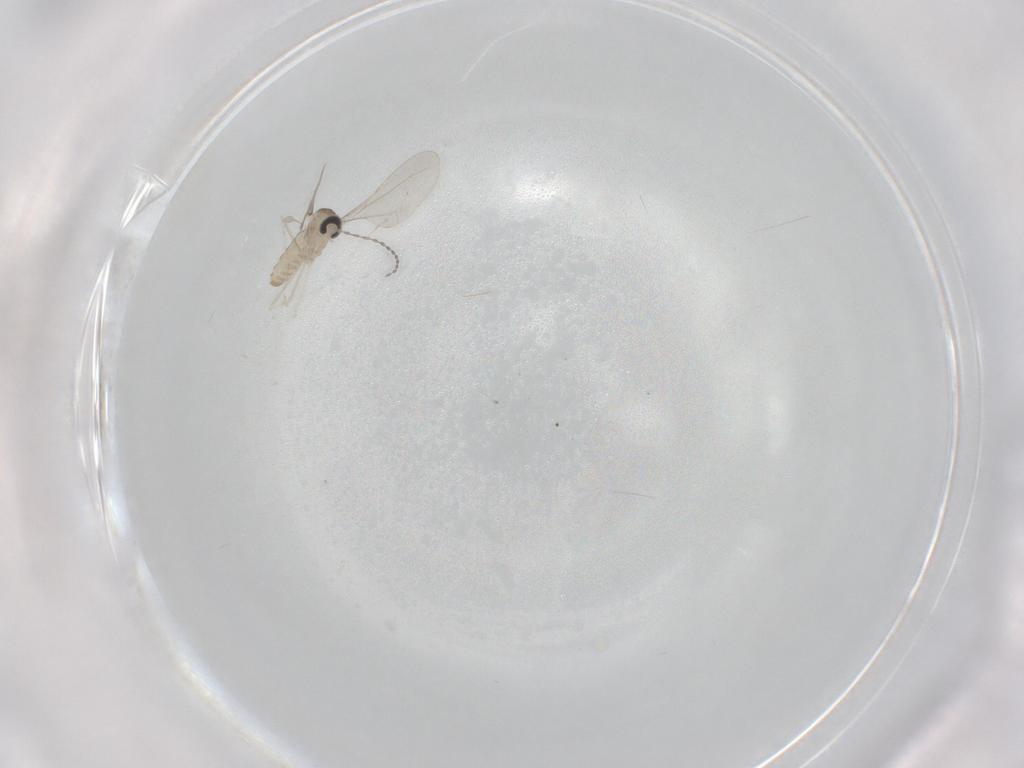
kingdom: Animalia
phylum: Arthropoda
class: Insecta
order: Diptera
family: Cecidomyiidae
